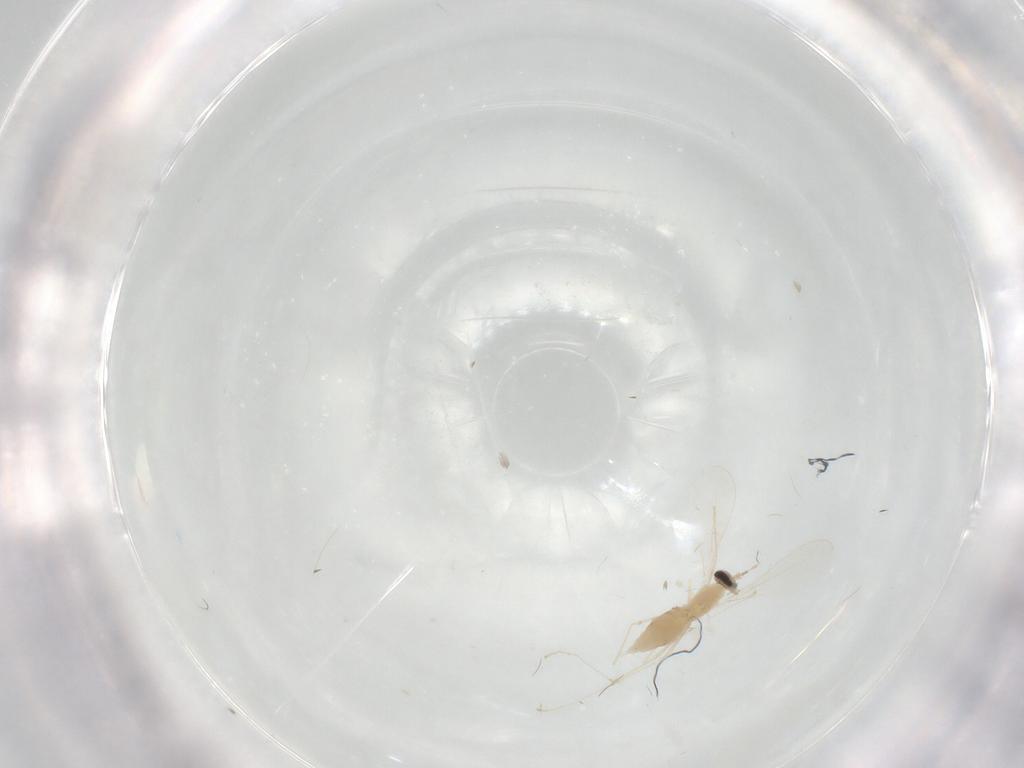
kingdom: Animalia
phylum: Arthropoda
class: Insecta
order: Diptera
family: Cecidomyiidae
